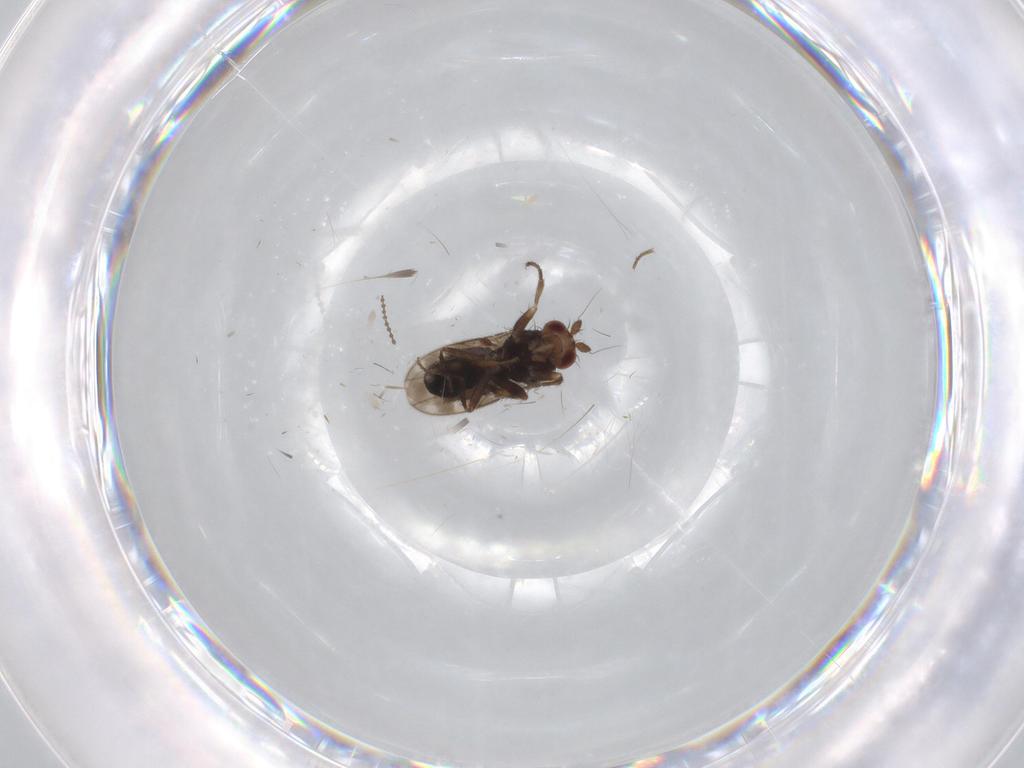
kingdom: Animalia
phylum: Arthropoda
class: Insecta
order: Diptera
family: Sphaeroceridae
